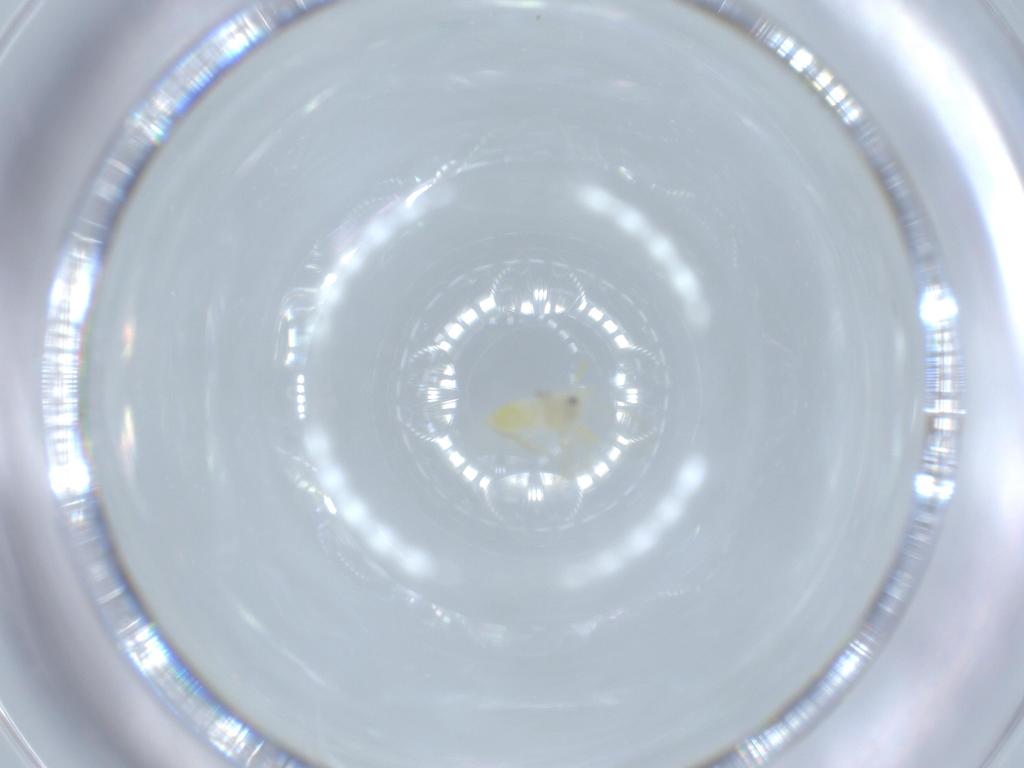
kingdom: Animalia
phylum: Arthropoda
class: Insecta
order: Hemiptera
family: Aleyrodidae
